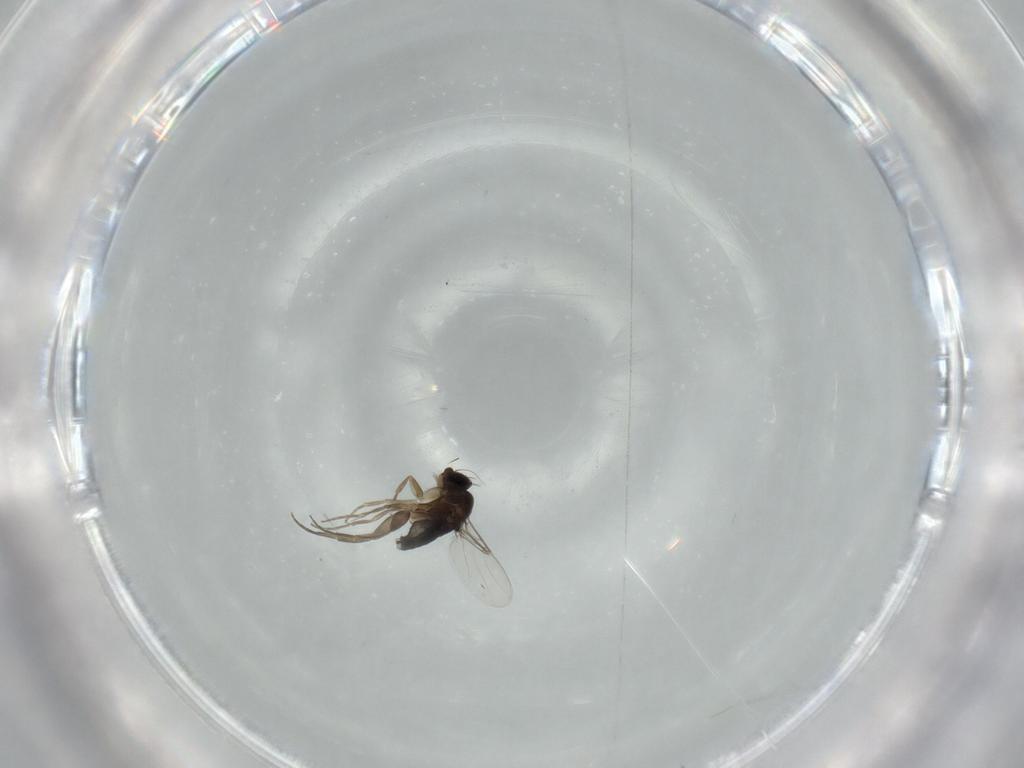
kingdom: Animalia
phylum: Arthropoda
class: Insecta
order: Diptera
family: Phoridae
